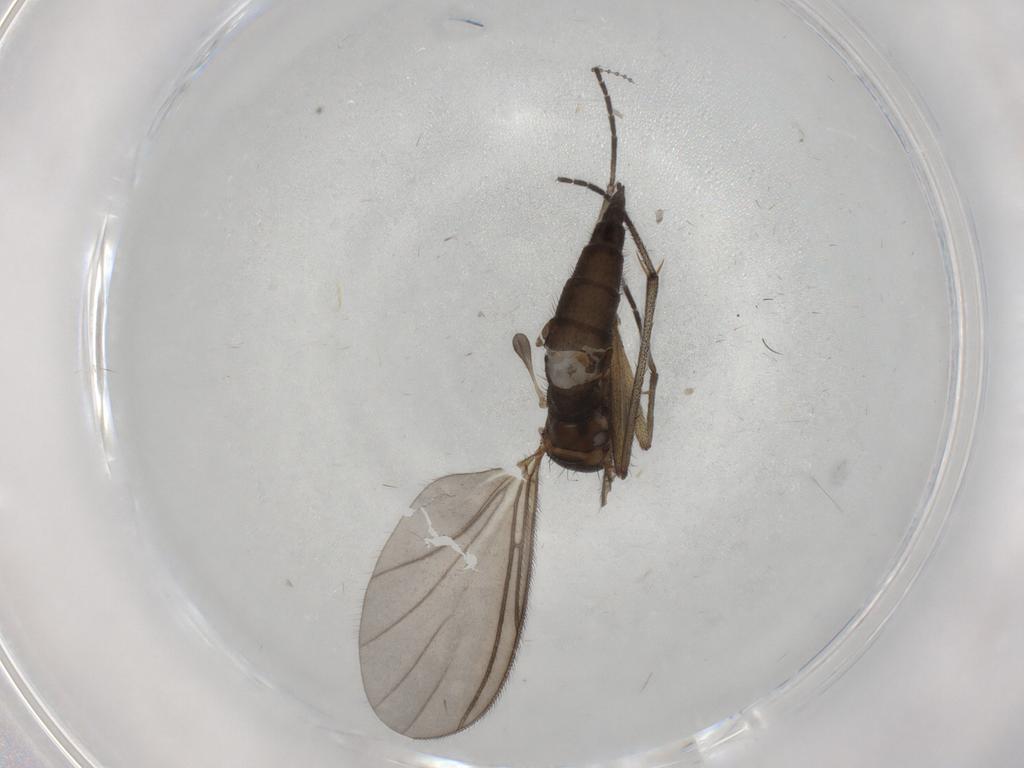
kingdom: Animalia
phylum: Arthropoda
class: Insecta
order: Diptera
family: Sciaridae
